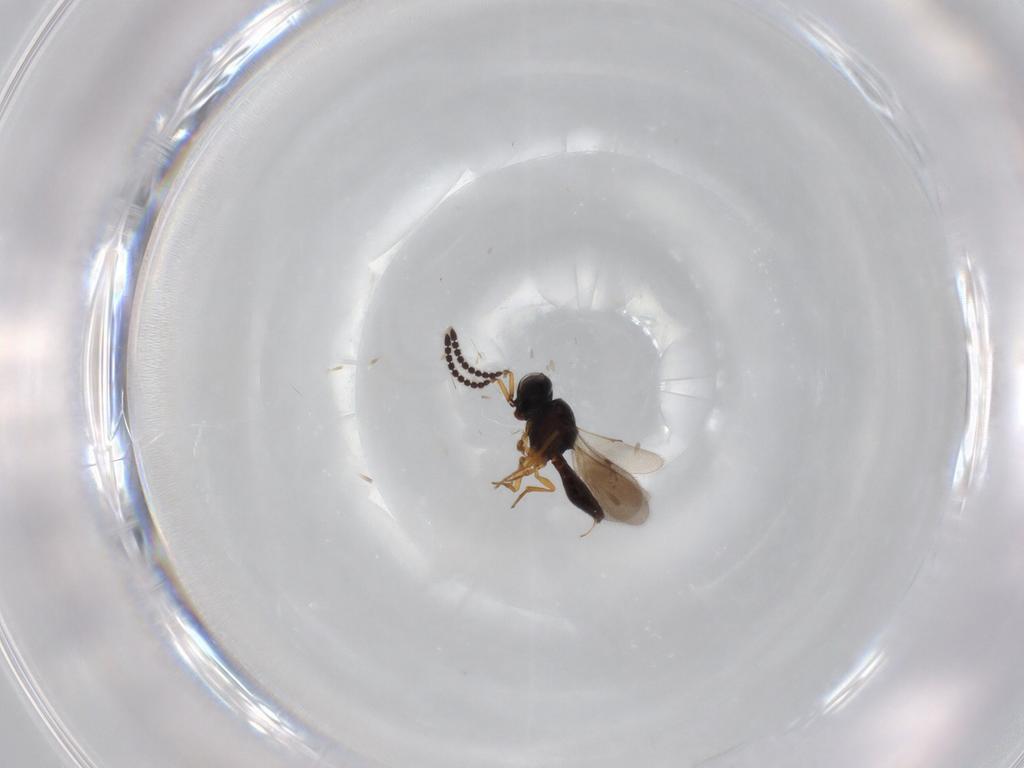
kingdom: Animalia
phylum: Arthropoda
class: Insecta
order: Hymenoptera
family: Scelionidae
